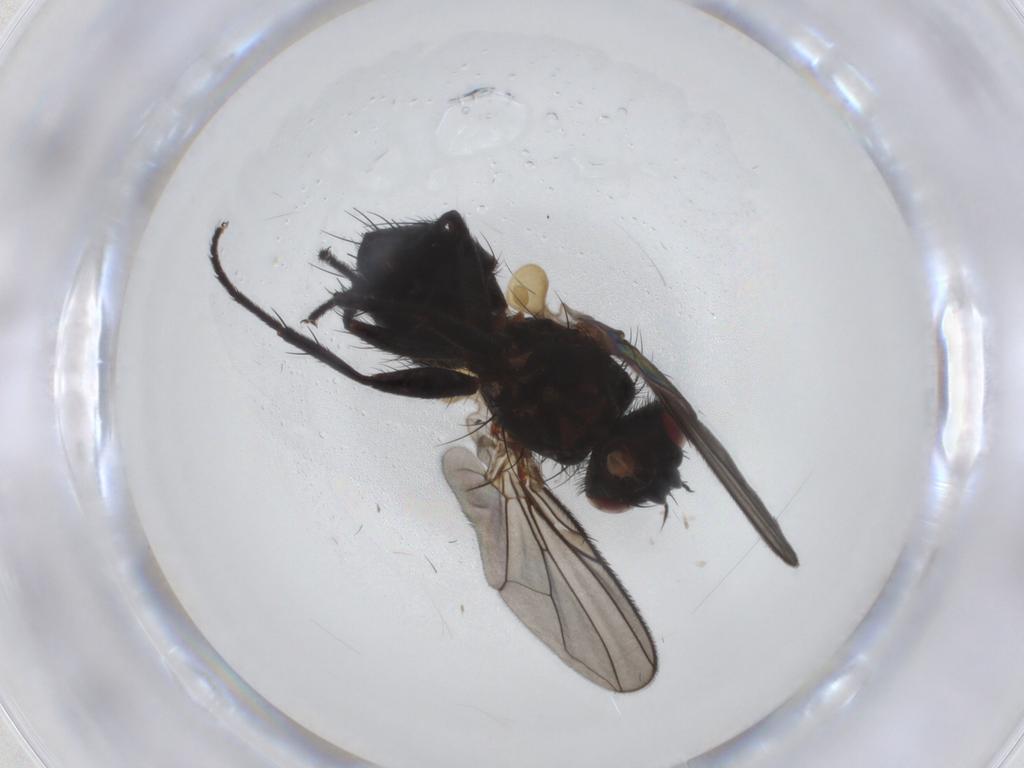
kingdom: Animalia
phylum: Arthropoda
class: Insecta
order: Diptera
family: Tachinidae
